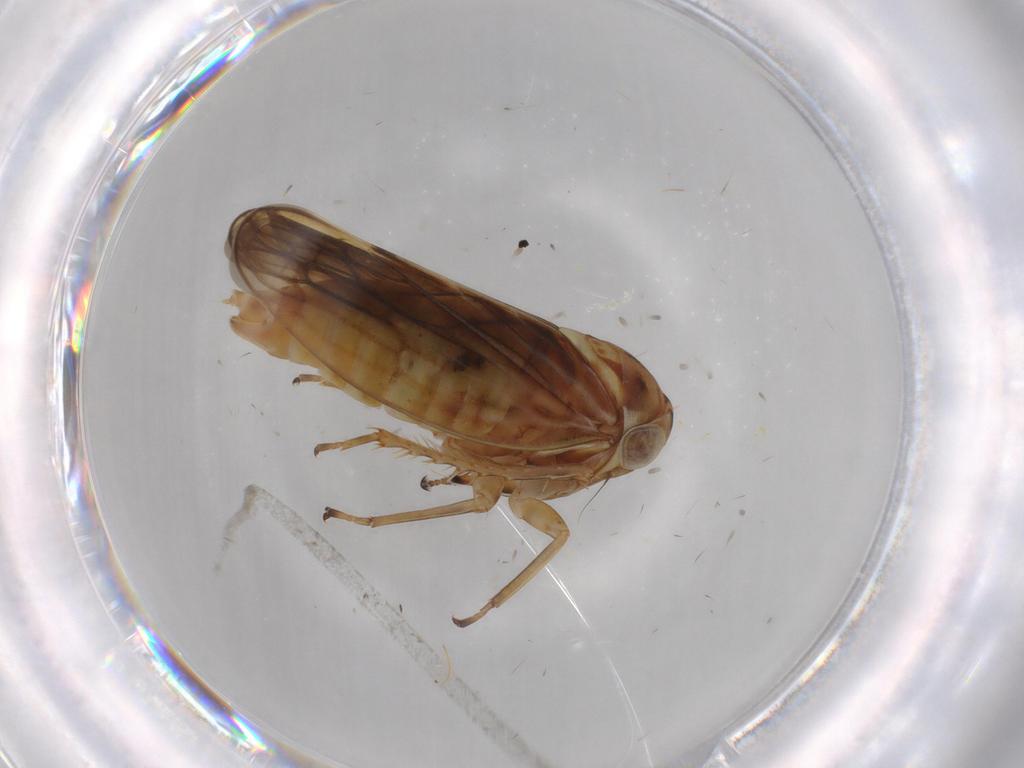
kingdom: Animalia
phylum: Arthropoda
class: Insecta
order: Hemiptera
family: Cicadellidae
